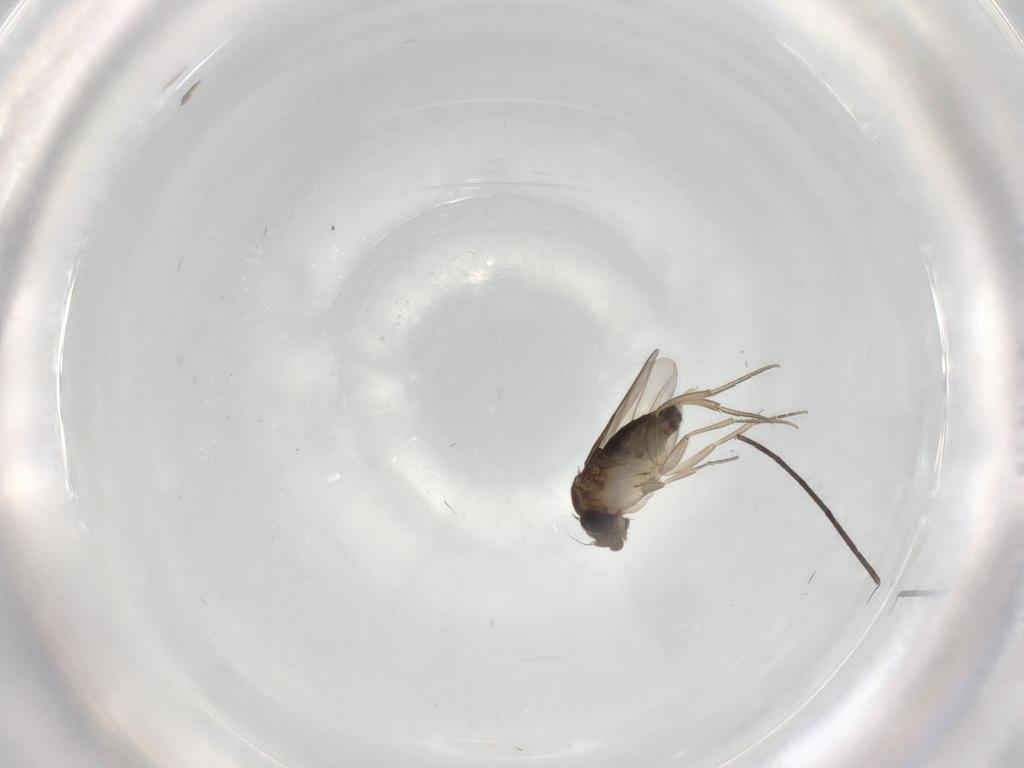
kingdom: Animalia
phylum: Arthropoda
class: Insecta
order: Diptera
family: Phoridae
